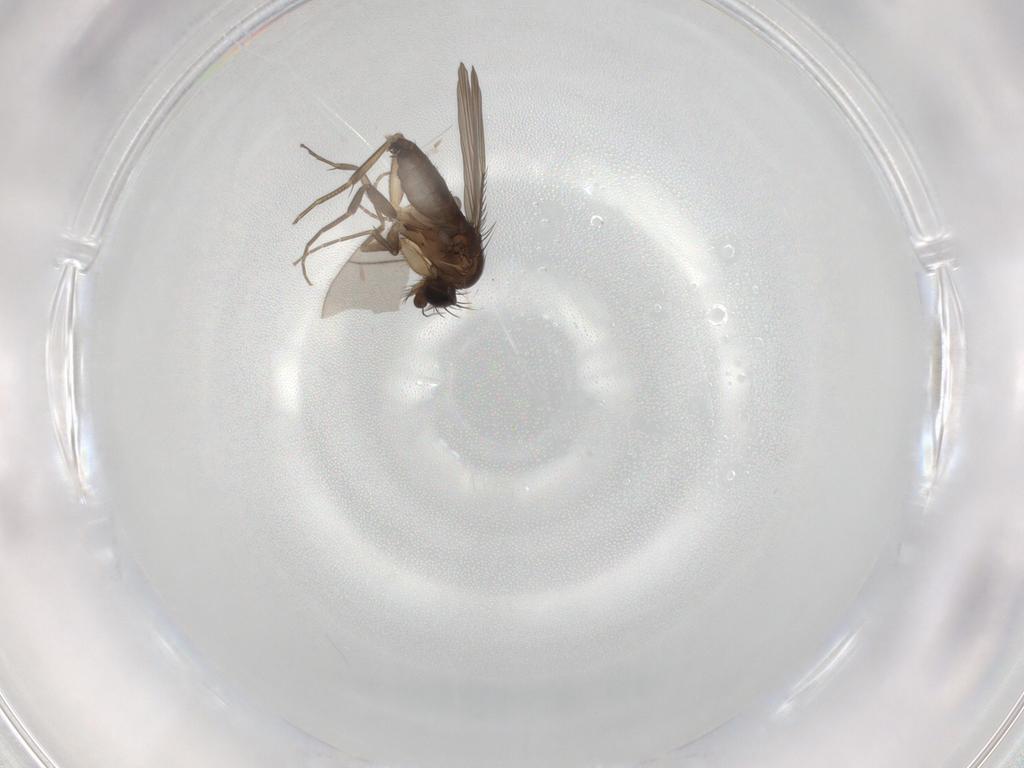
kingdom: Animalia
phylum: Arthropoda
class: Insecta
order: Diptera
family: Phoridae
